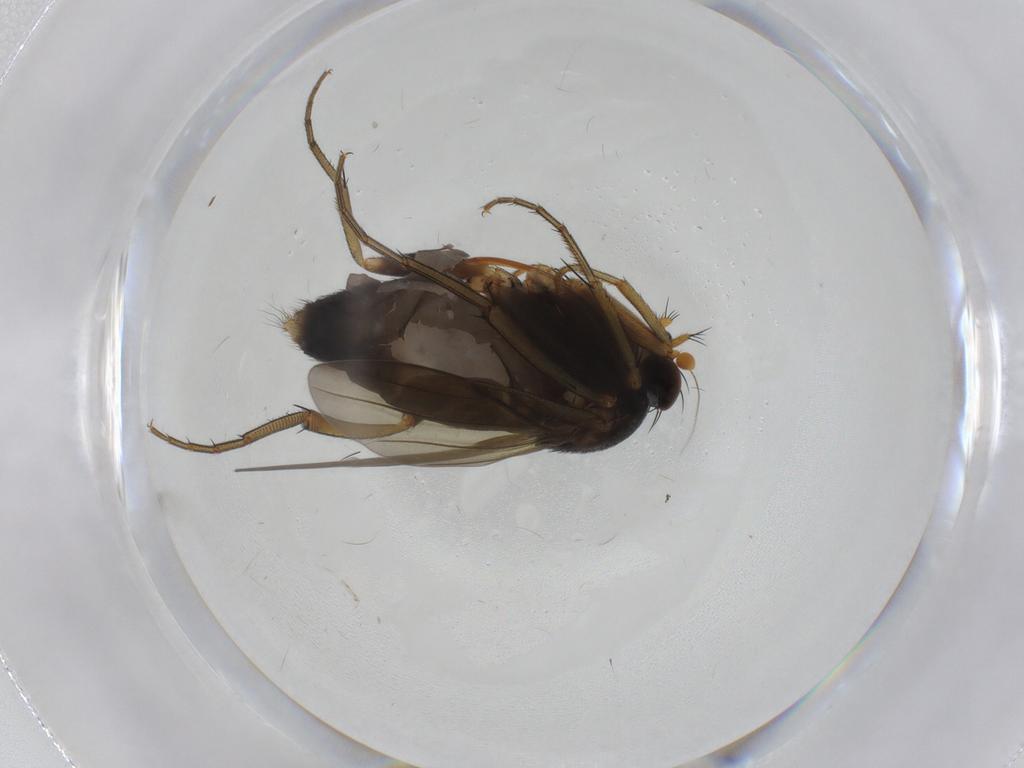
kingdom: Animalia
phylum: Arthropoda
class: Insecta
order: Diptera
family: Phoridae
